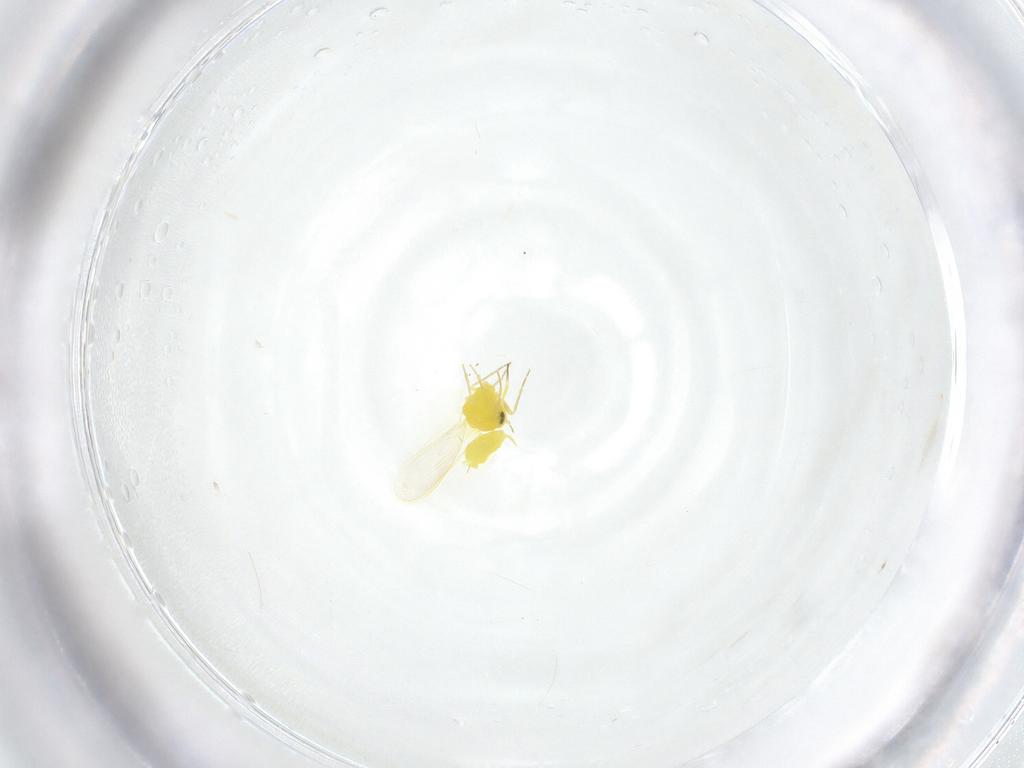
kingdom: Animalia
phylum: Arthropoda
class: Insecta
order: Hemiptera
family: Aleyrodidae
